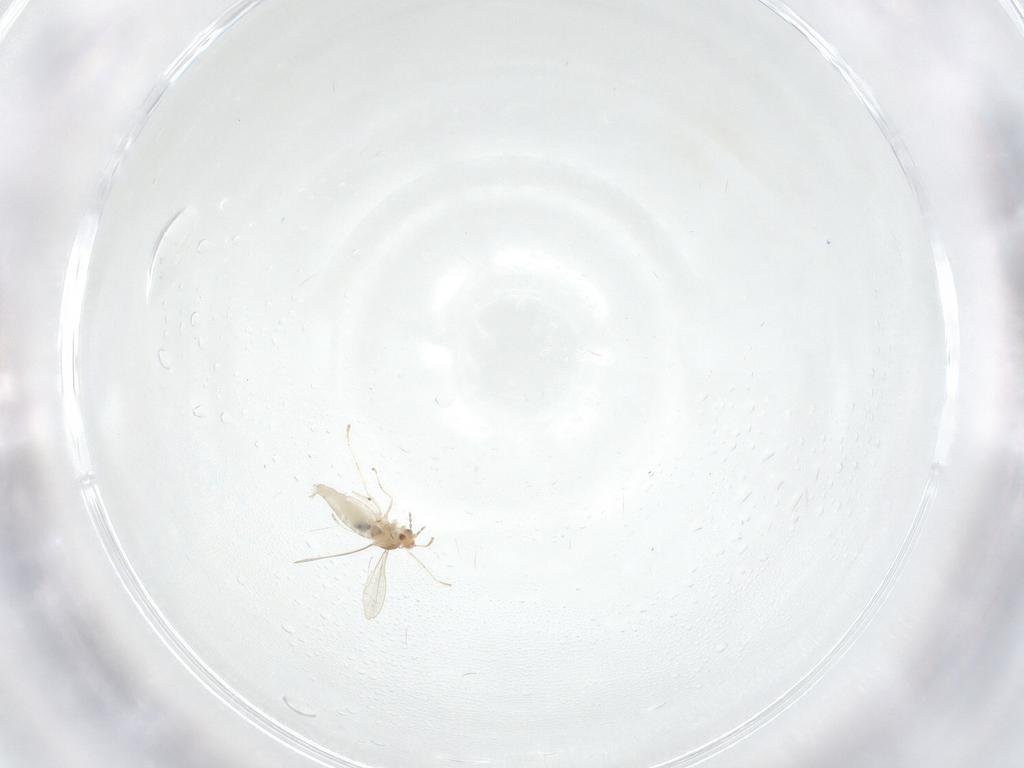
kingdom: Animalia
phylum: Arthropoda
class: Insecta
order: Diptera
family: Cecidomyiidae
